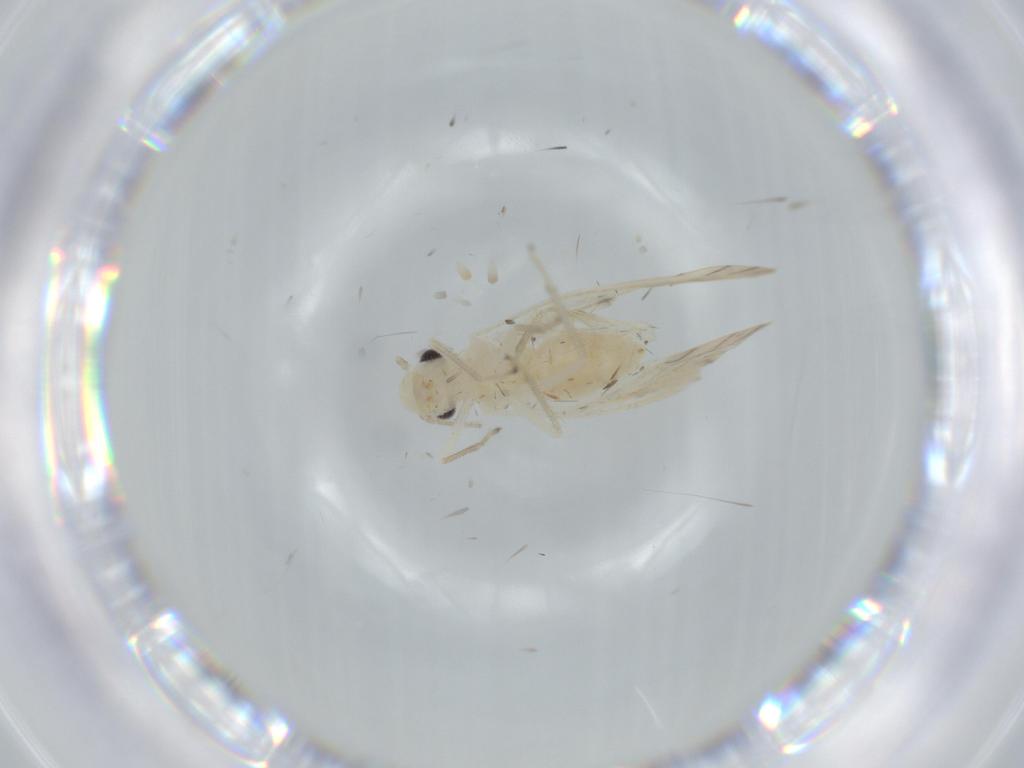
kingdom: Animalia
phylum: Arthropoda
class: Insecta
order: Psocodea
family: Caeciliusidae
